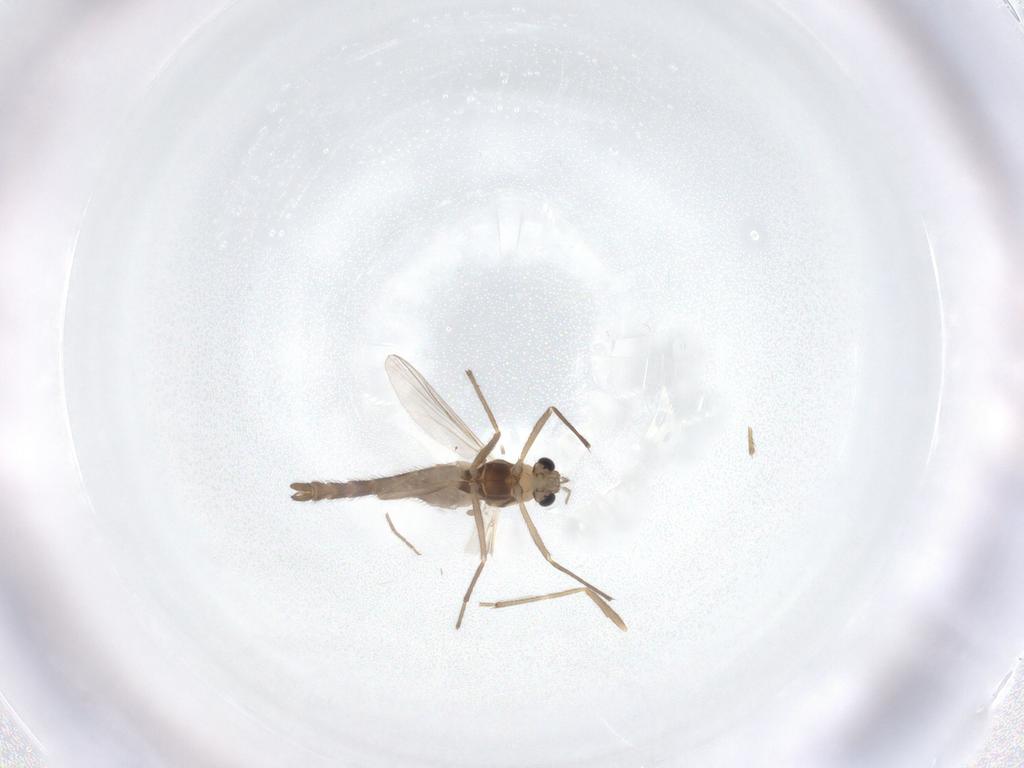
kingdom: Animalia
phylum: Arthropoda
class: Insecta
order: Diptera
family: Chironomidae
